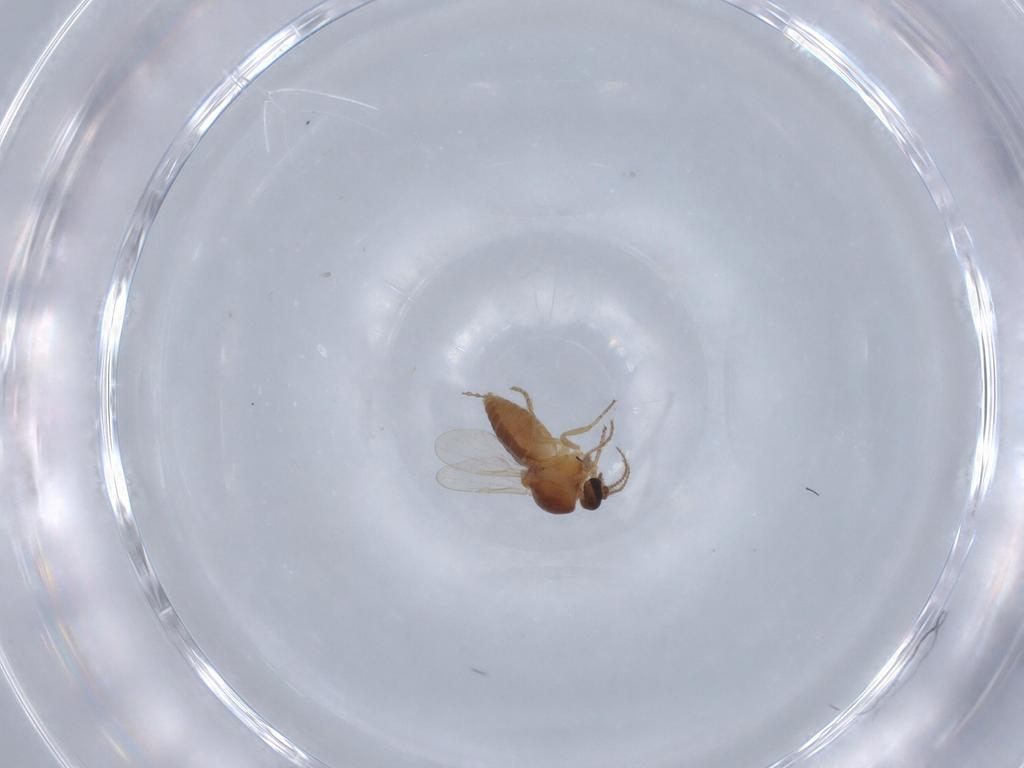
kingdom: Animalia
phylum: Arthropoda
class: Insecta
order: Diptera
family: Ceratopogonidae
